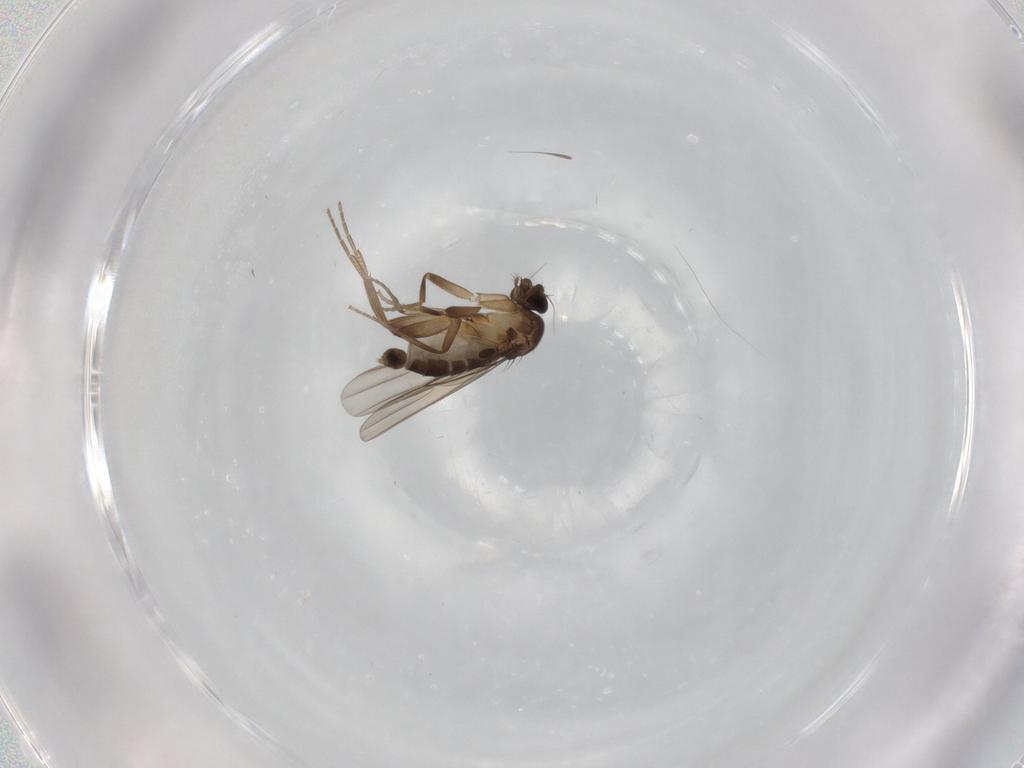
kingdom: Animalia
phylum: Arthropoda
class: Insecta
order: Diptera
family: Phoridae
